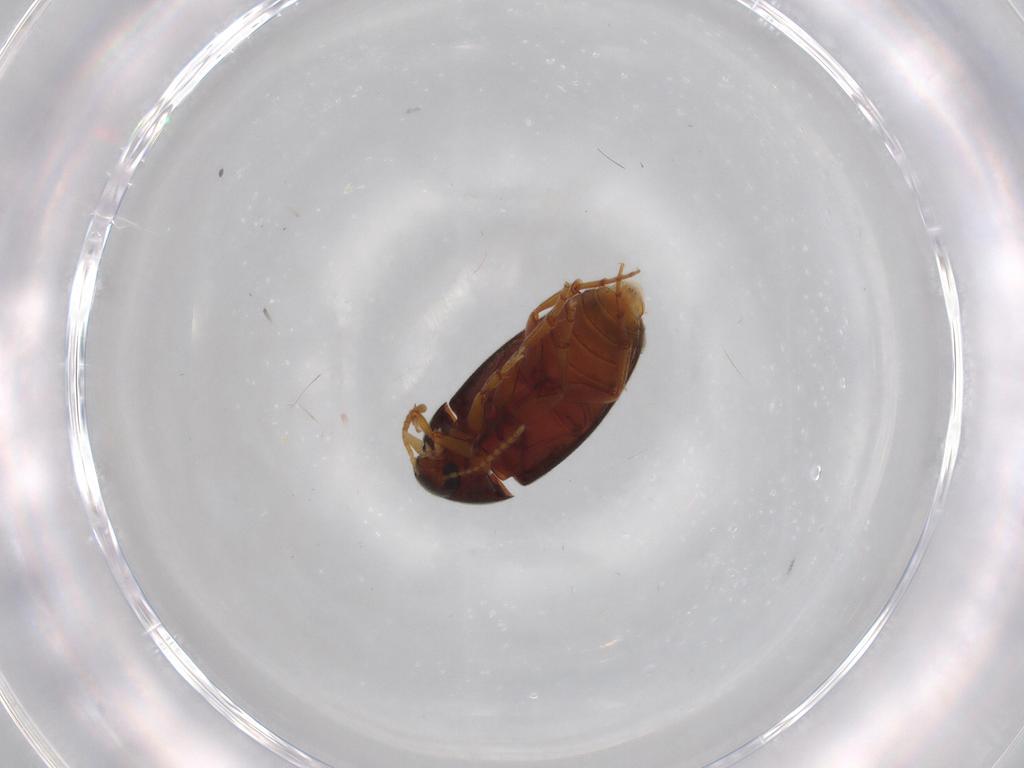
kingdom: Animalia
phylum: Arthropoda
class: Insecta
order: Coleoptera
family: Scraptiidae
